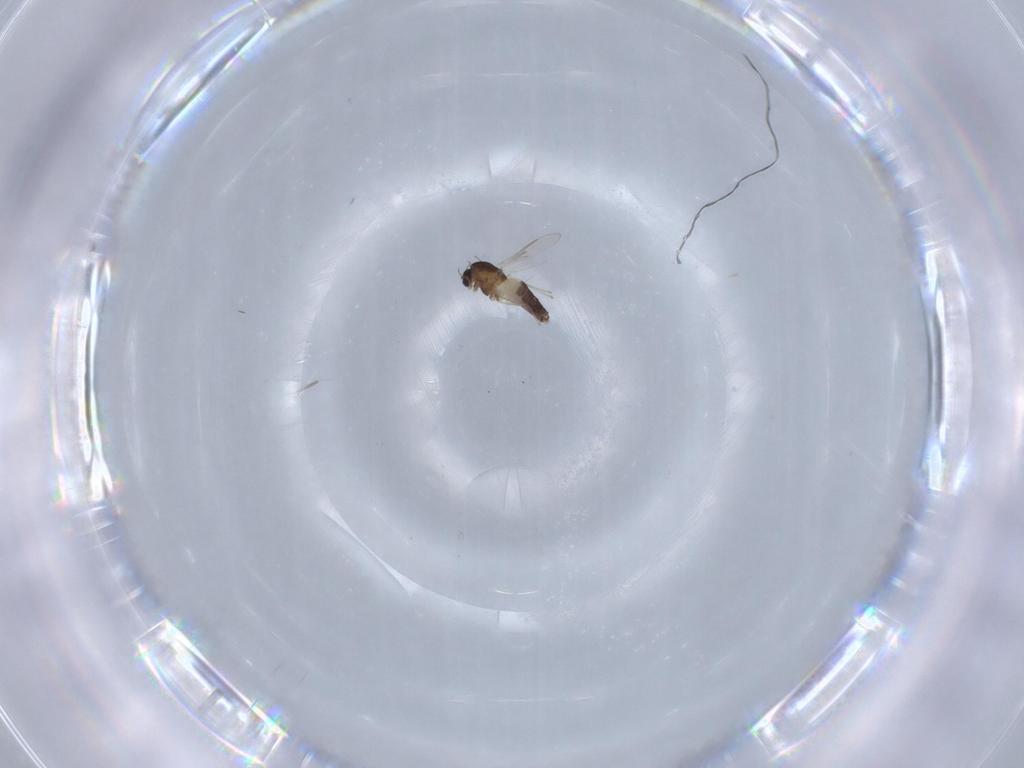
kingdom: Animalia
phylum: Arthropoda
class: Insecta
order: Diptera
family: Chironomidae
